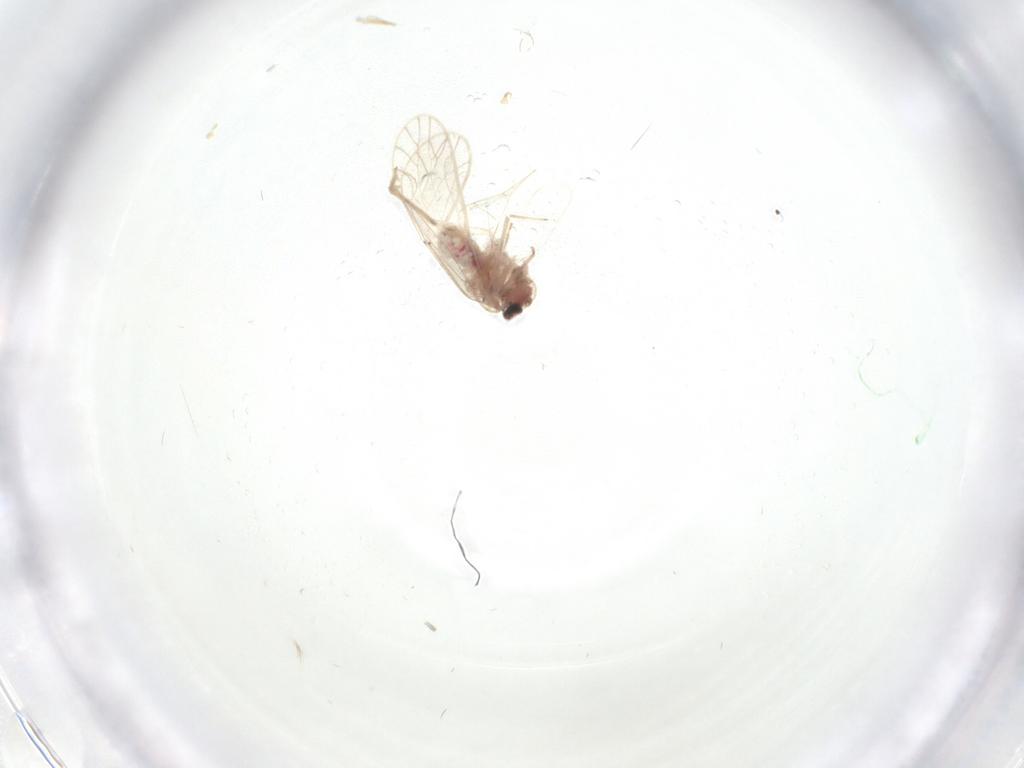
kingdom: Animalia
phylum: Arthropoda
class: Insecta
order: Psocodea
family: Caeciliusidae
